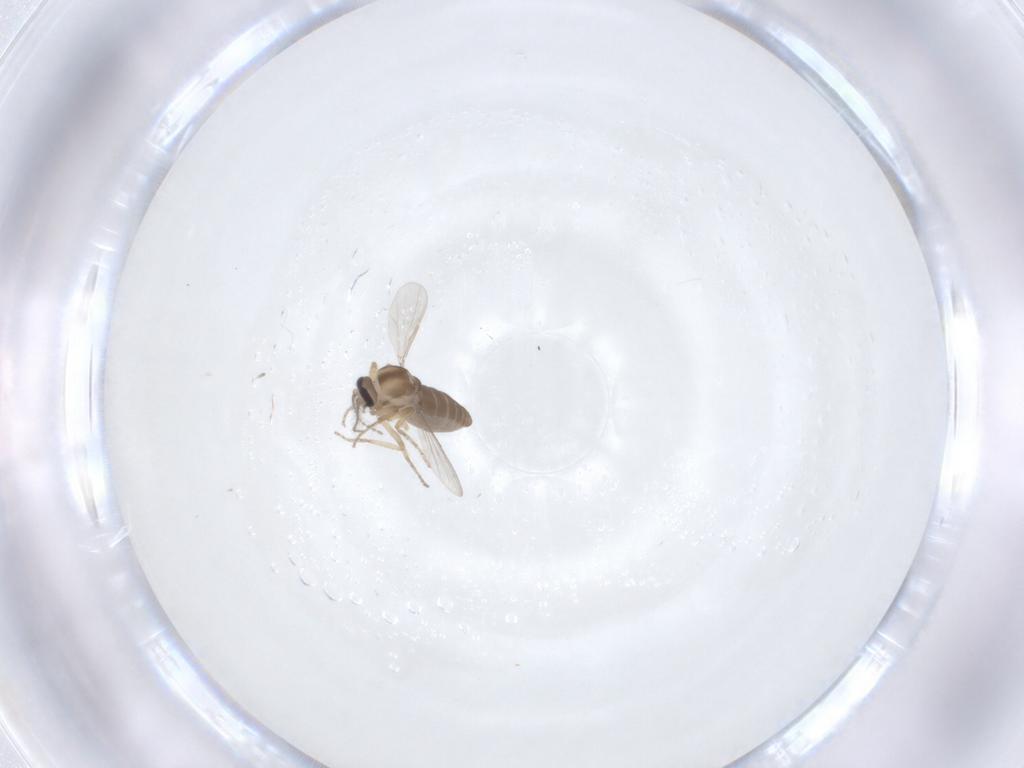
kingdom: Animalia
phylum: Arthropoda
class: Insecta
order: Diptera
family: Ceratopogonidae
